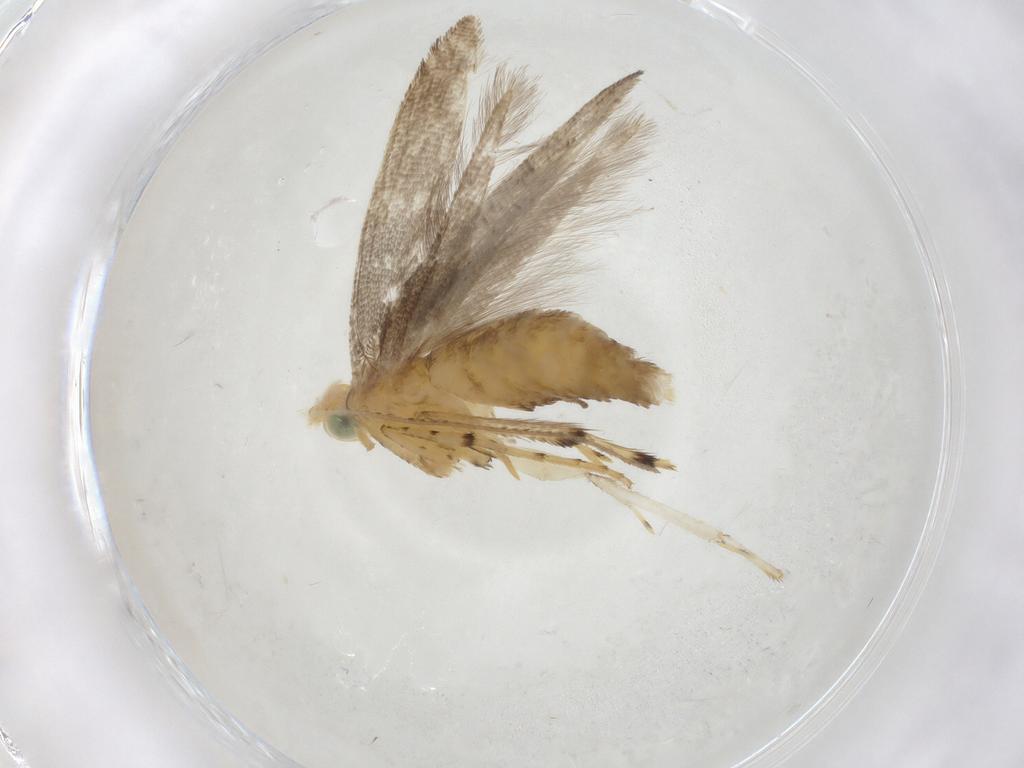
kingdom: Animalia
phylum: Arthropoda
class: Insecta
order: Lepidoptera
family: Argyresthiidae
